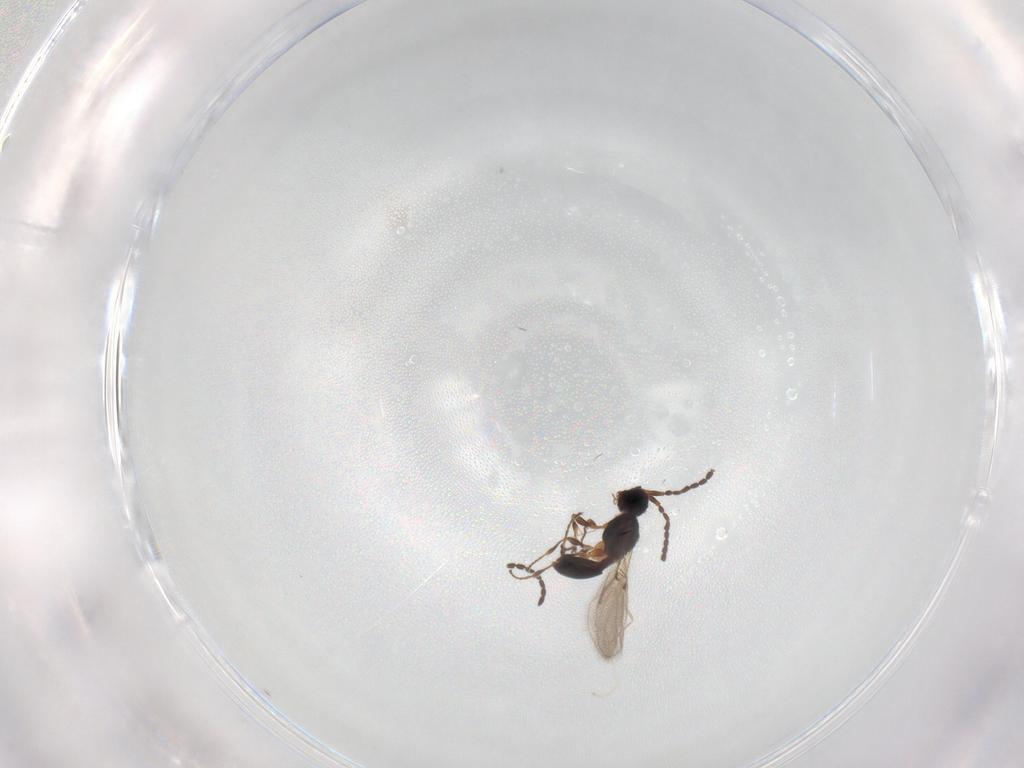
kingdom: Animalia
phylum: Arthropoda
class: Insecta
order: Hymenoptera
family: Diapriidae
